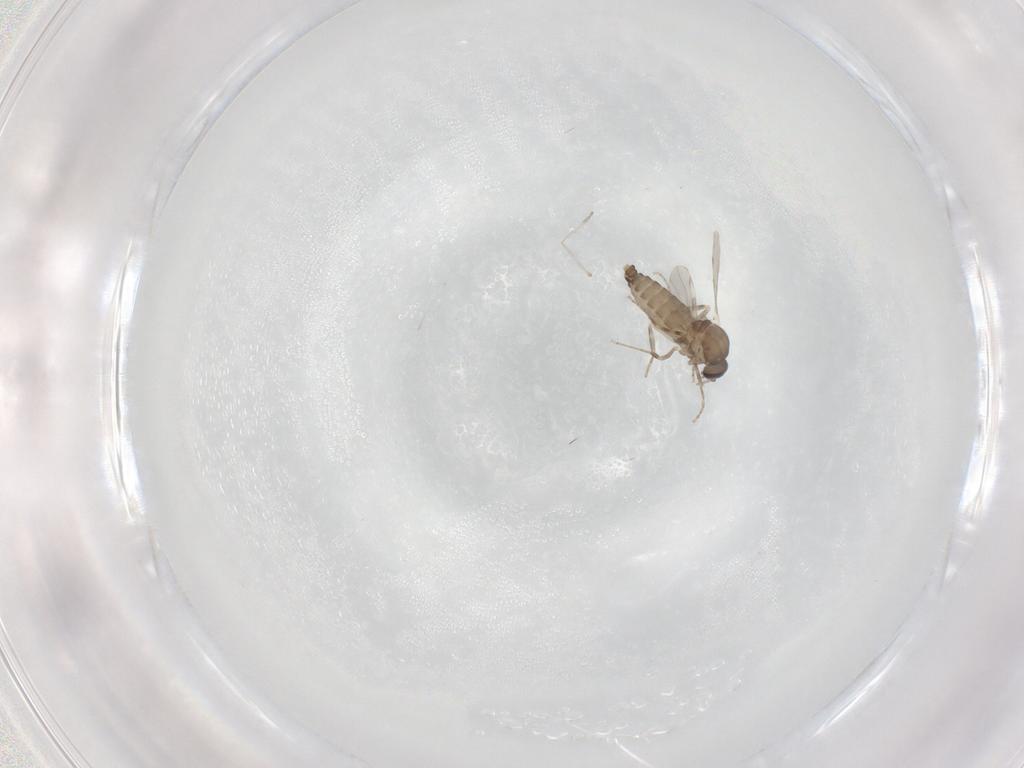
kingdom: Animalia
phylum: Arthropoda
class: Insecta
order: Diptera
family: Ceratopogonidae
